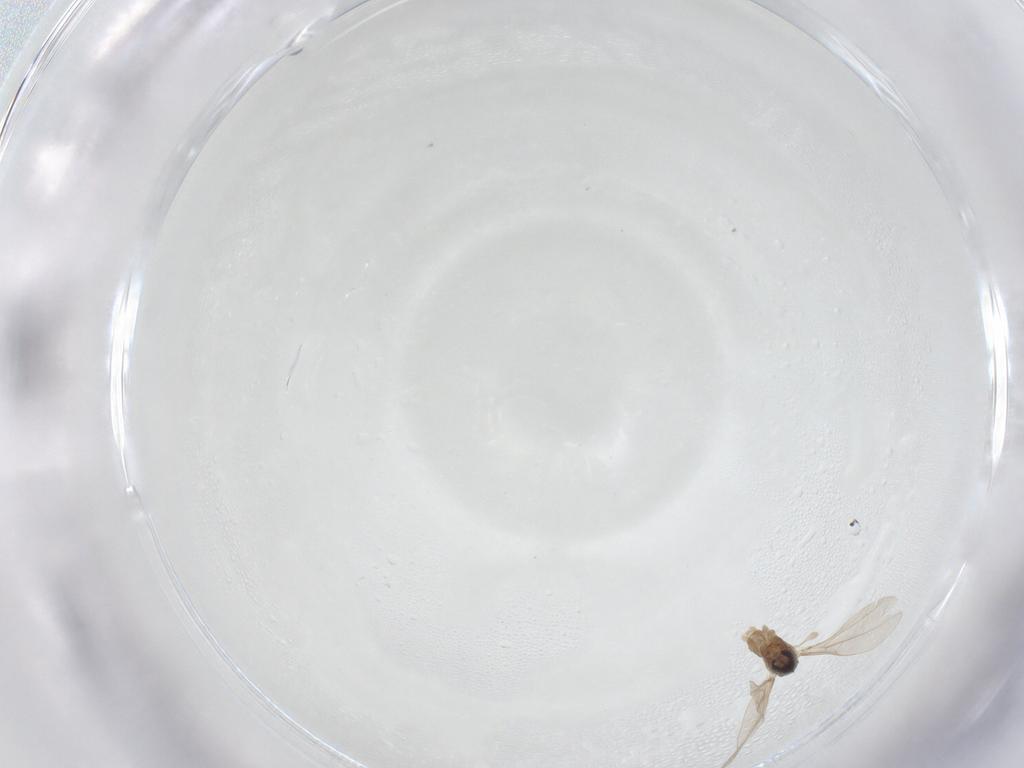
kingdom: Animalia
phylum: Arthropoda
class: Insecta
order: Diptera
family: Cecidomyiidae
